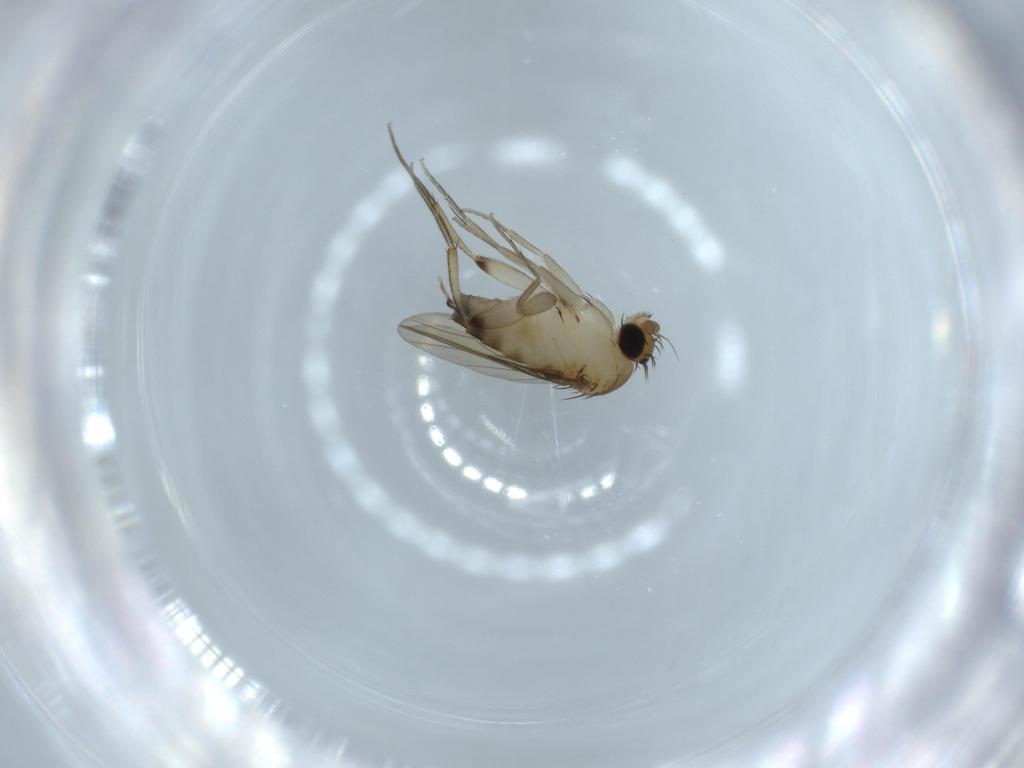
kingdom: Animalia
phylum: Arthropoda
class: Insecta
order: Diptera
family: Phoridae
